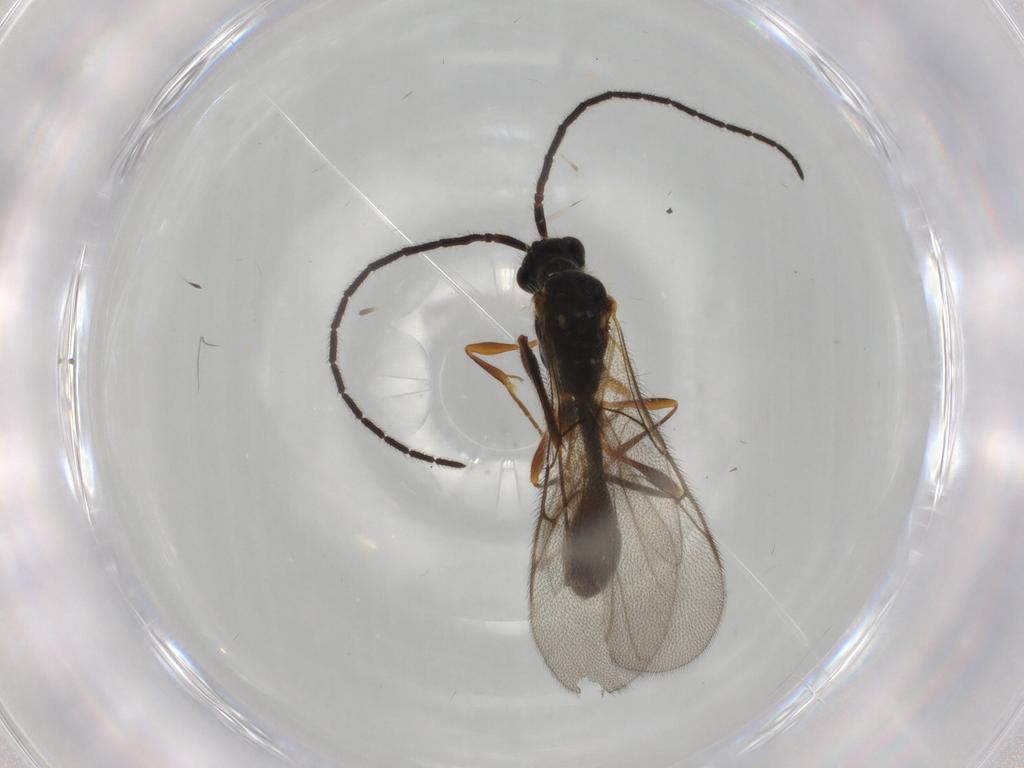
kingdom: Animalia
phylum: Arthropoda
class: Insecta
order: Hymenoptera
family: Diapriidae
